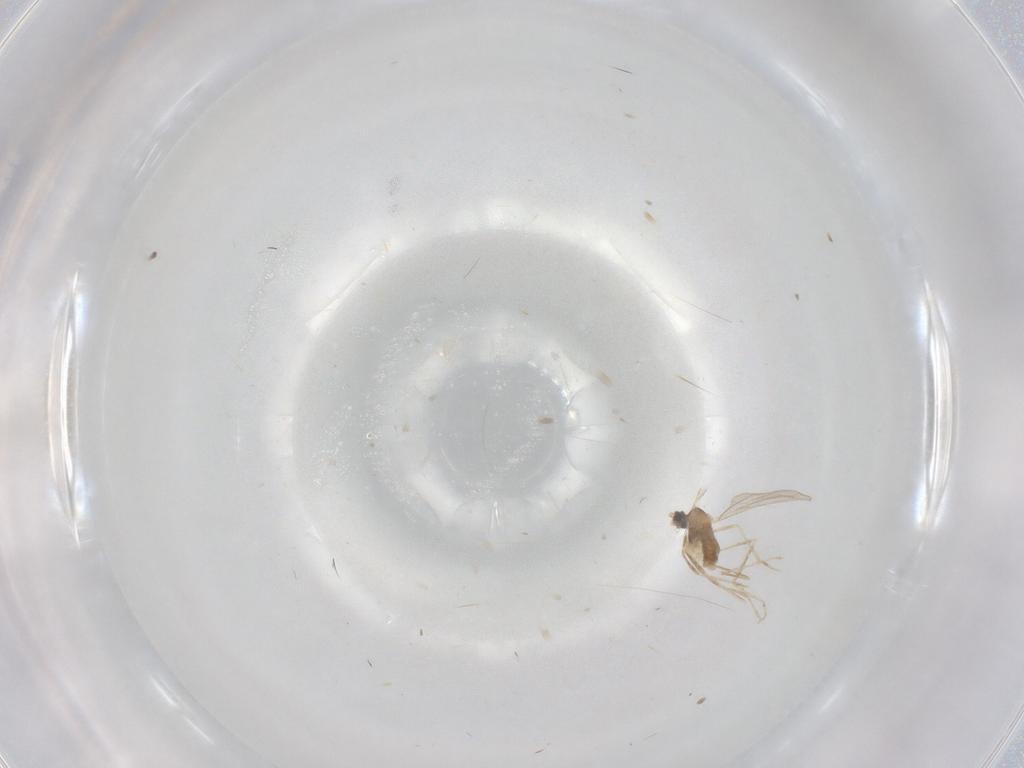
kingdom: Animalia
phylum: Arthropoda
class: Insecta
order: Diptera
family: Cecidomyiidae
